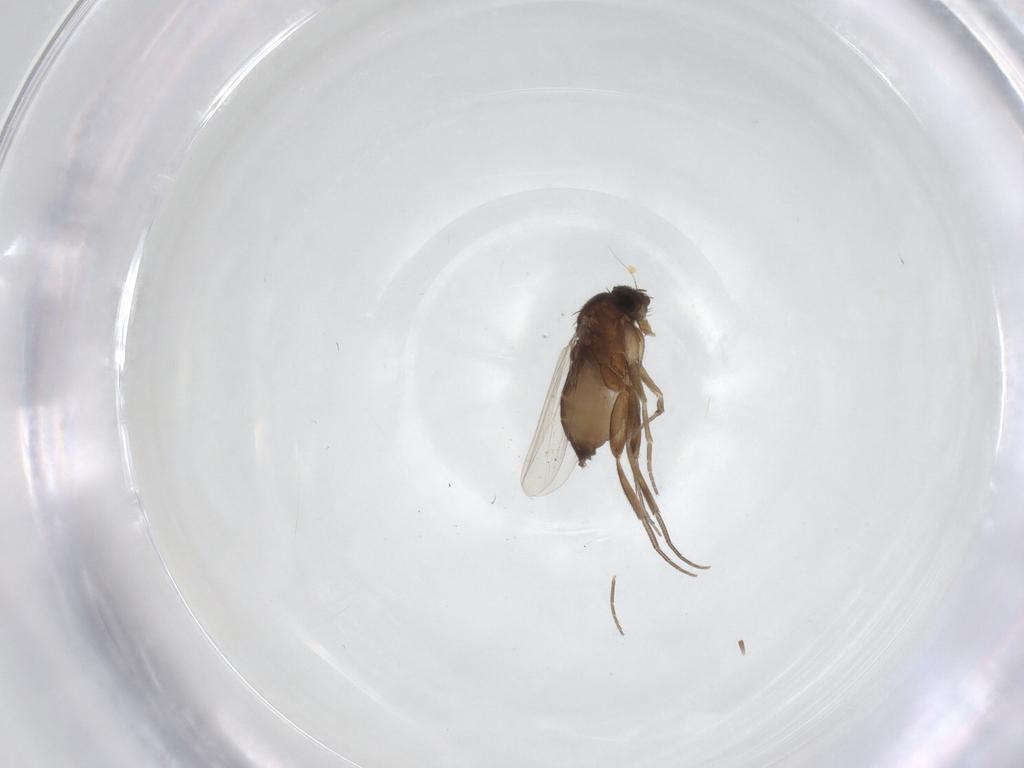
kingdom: Animalia
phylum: Arthropoda
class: Insecta
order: Diptera
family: Phoridae
